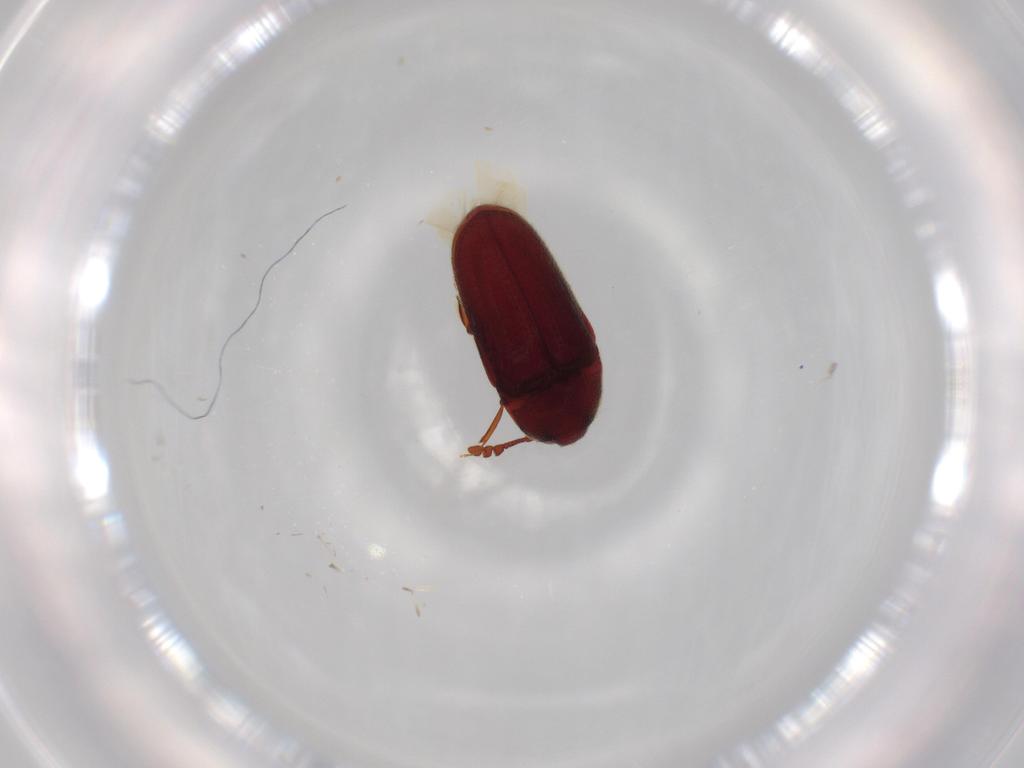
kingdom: Animalia
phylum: Arthropoda
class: Insecta
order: Coleoptera
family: Throscidae
